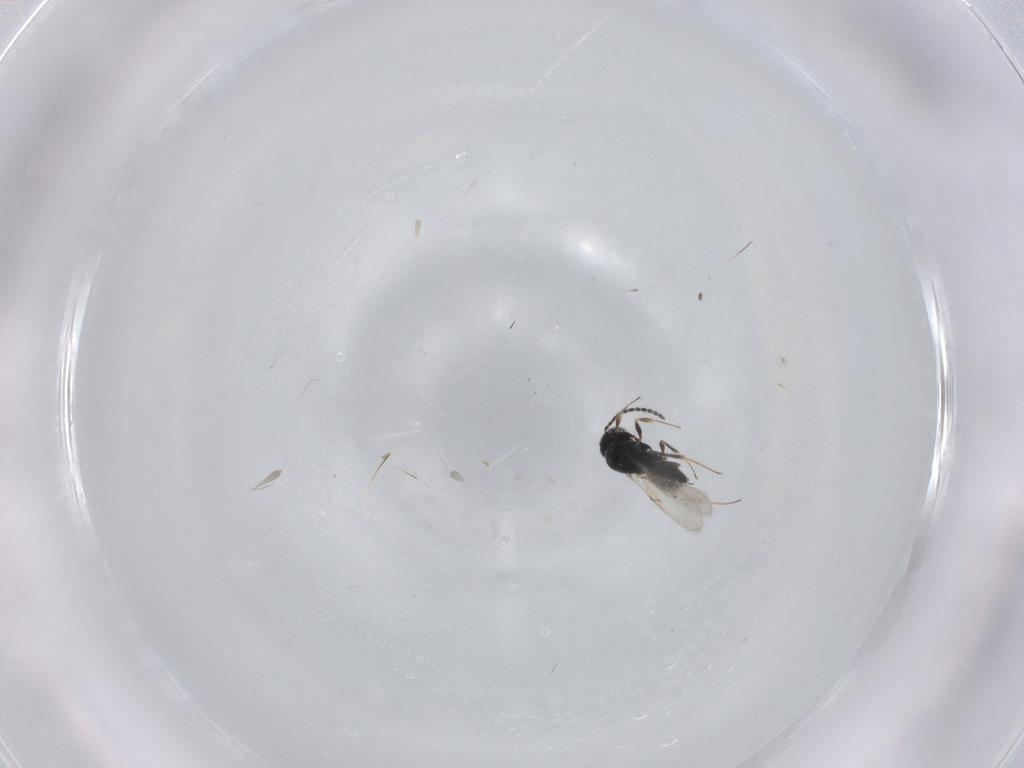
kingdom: Animalia
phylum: Arthropoda
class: Insecta
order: Hymenoptera
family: Scelionidae
